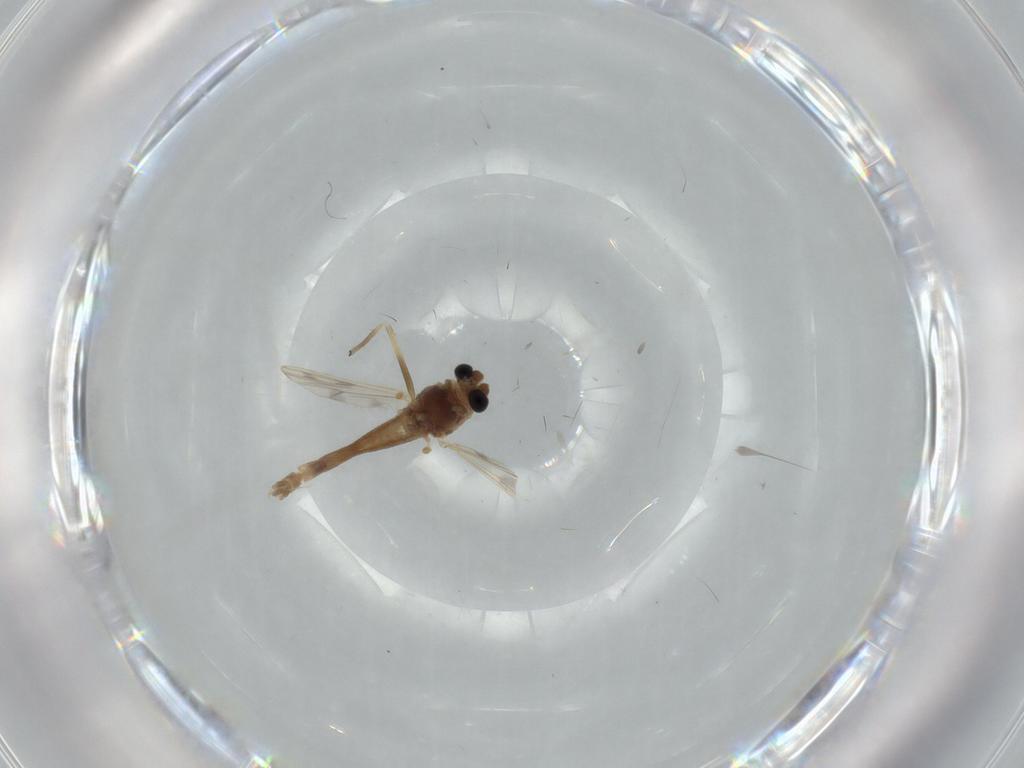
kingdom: Animalia
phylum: Arthropoda
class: Insecta
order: Diptera
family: Chironomidae
